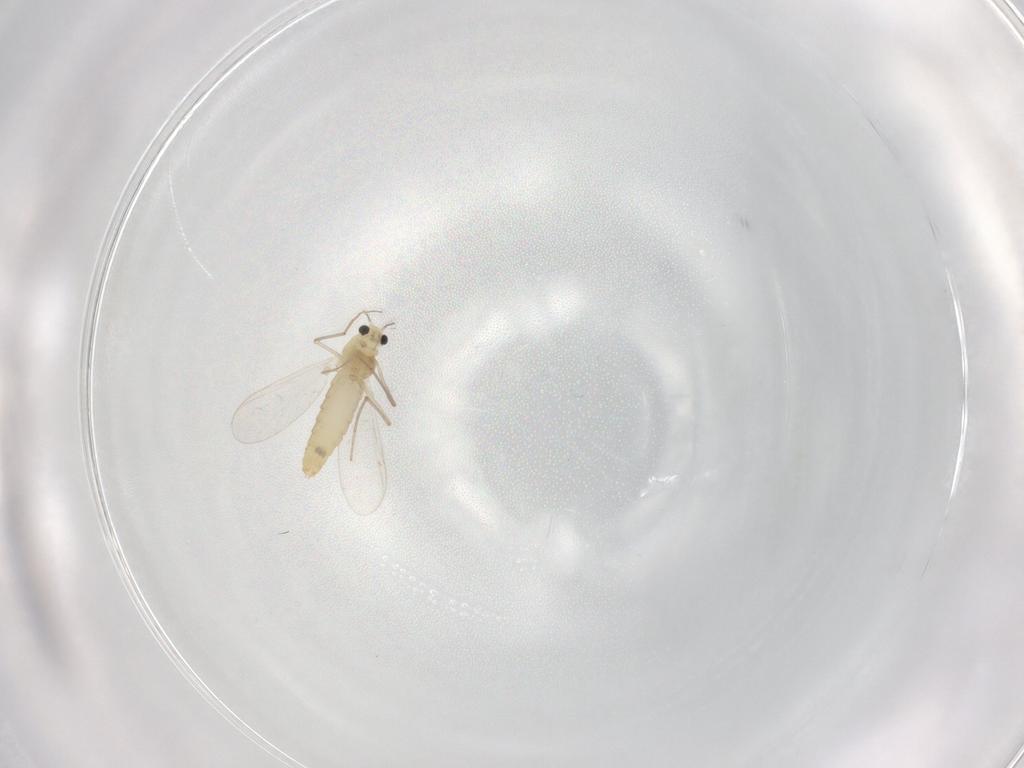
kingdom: Animalia
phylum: Arthropoda
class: Insecta
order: Diptera
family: Chironomidae
